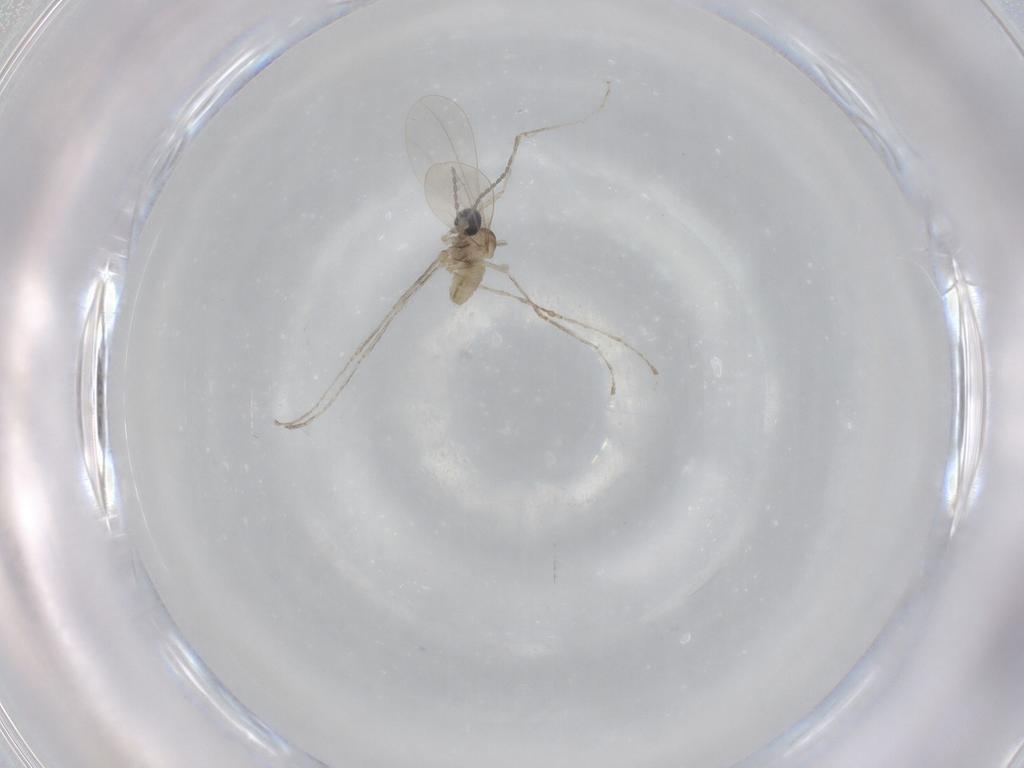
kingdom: Animalia
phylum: Arthropoda
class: Insecta
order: Diptera
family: Cecidomyiidae
